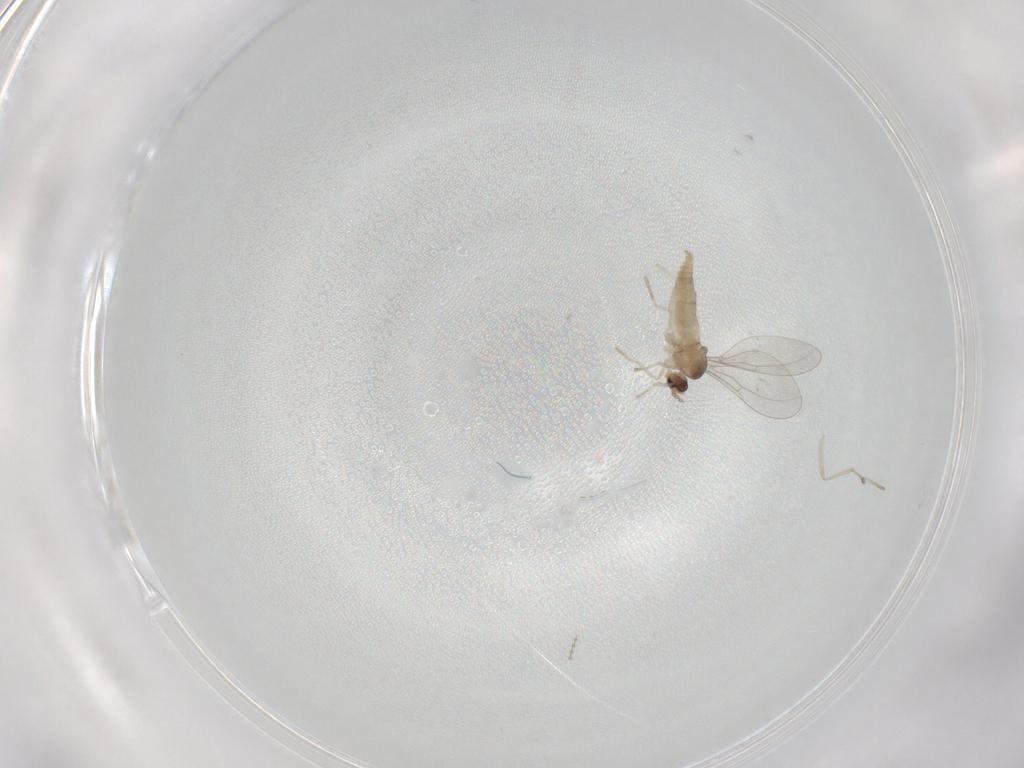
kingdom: Animalia
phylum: Arthropoda
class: Insecta
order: Diptera
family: Cecidomyiidae
